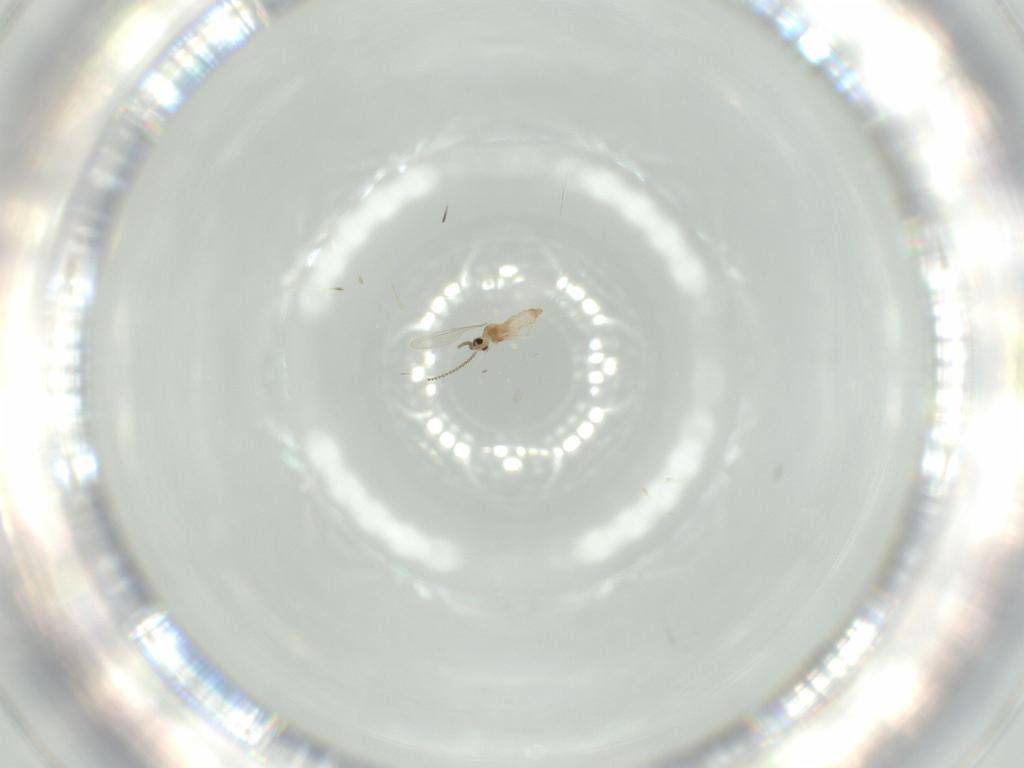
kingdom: Animalia
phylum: Arthropoda
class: Insecta
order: Diptera
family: Cecidomyiidae
